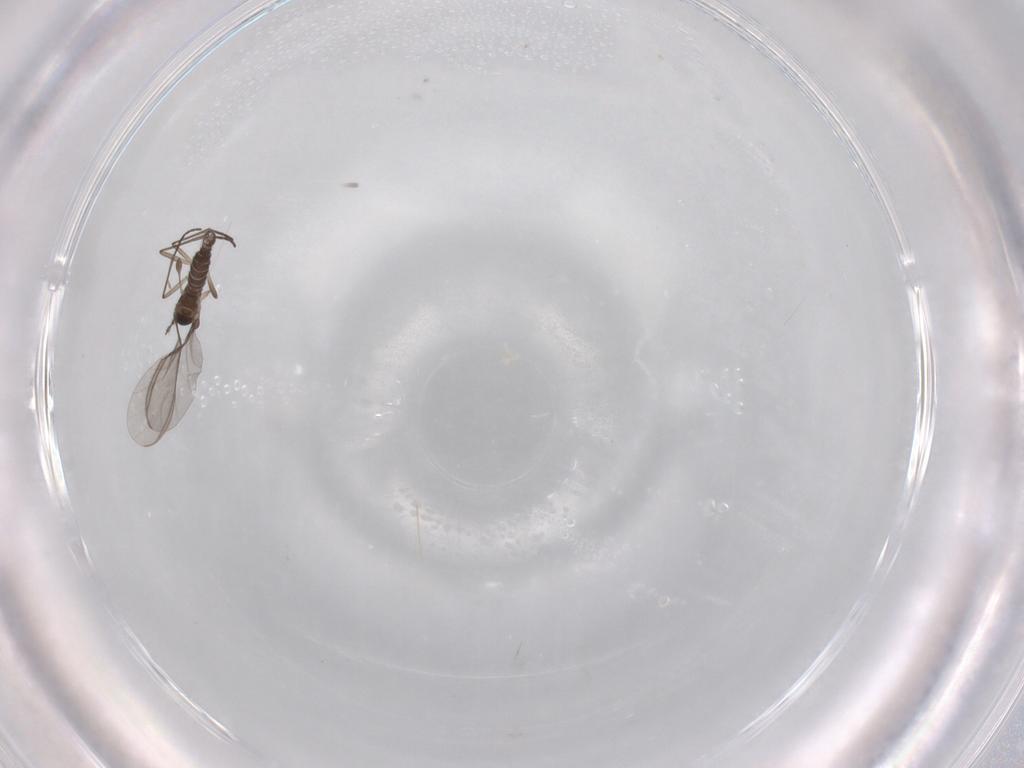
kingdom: Animalia
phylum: Arthropoda
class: Insecta
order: Diptera
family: Sciaridae
